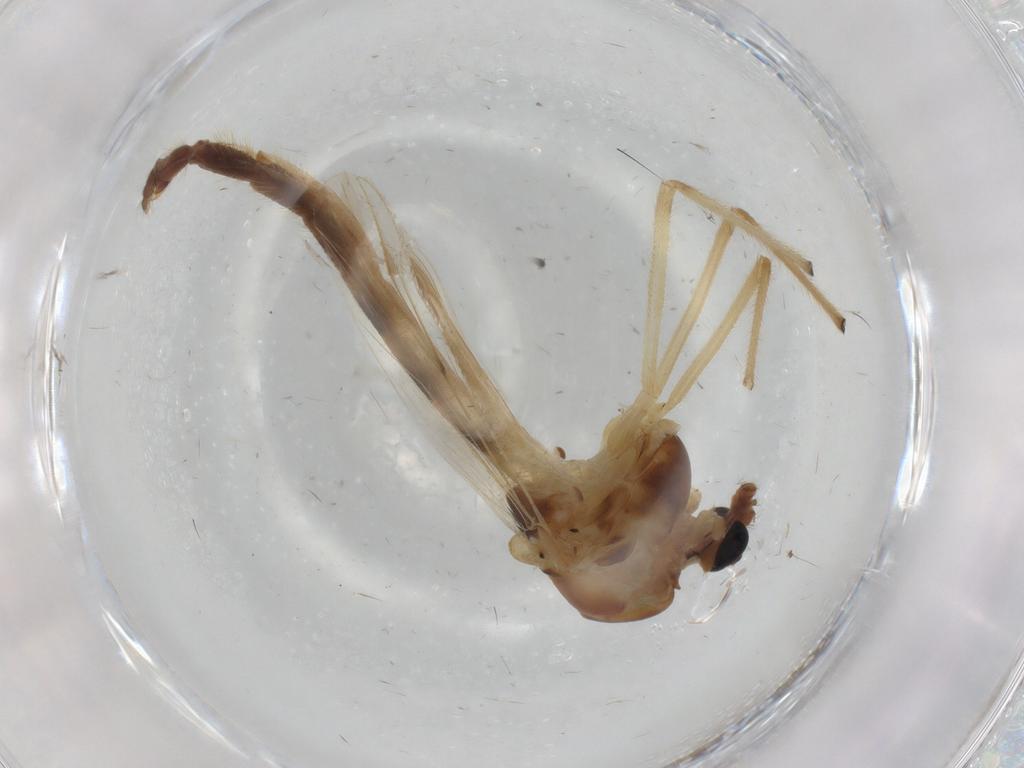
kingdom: Animalia
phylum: Arthropoda
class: Insecta
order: Diptera
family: Chironomidae
